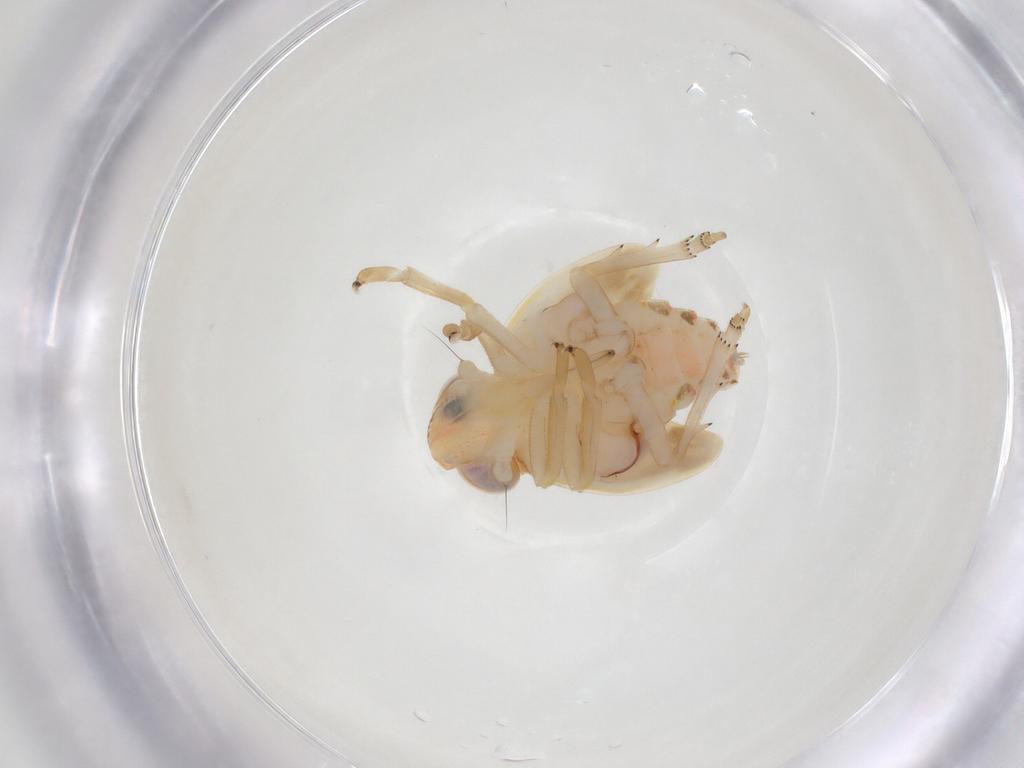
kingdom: Animalia
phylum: Arthropoda
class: Insecta
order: Hemiptera
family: Nogodinidae
